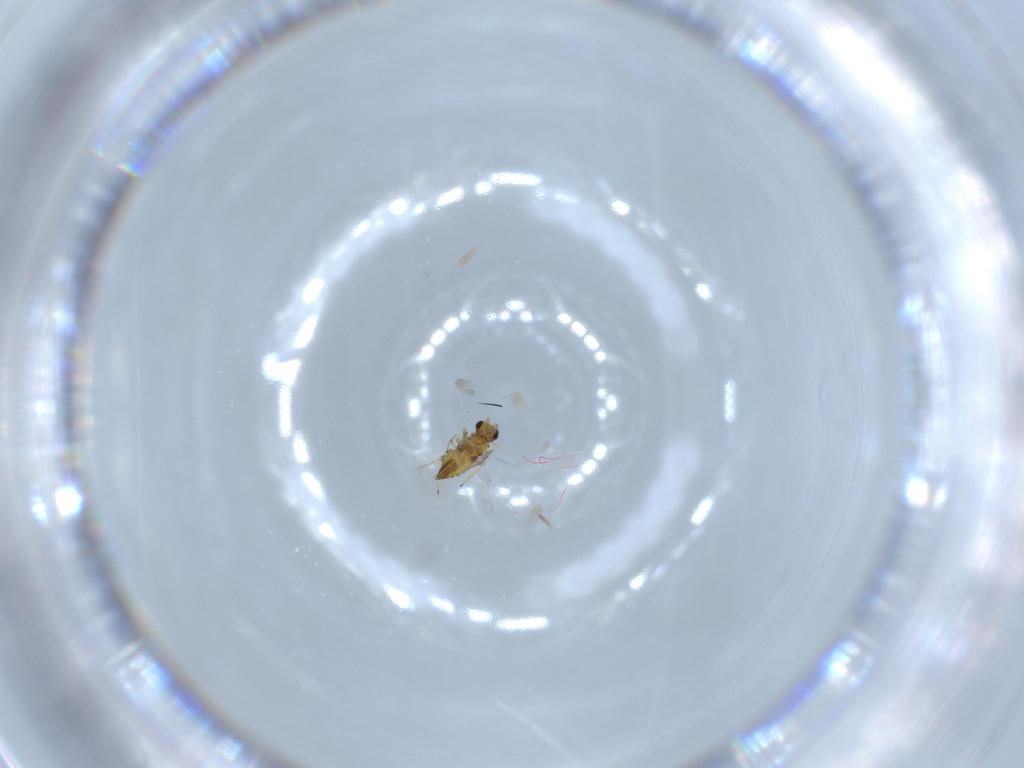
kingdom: Animalia
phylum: Arthropoda
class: Insecta
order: Hymenoptera
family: Trichogrammatidae
